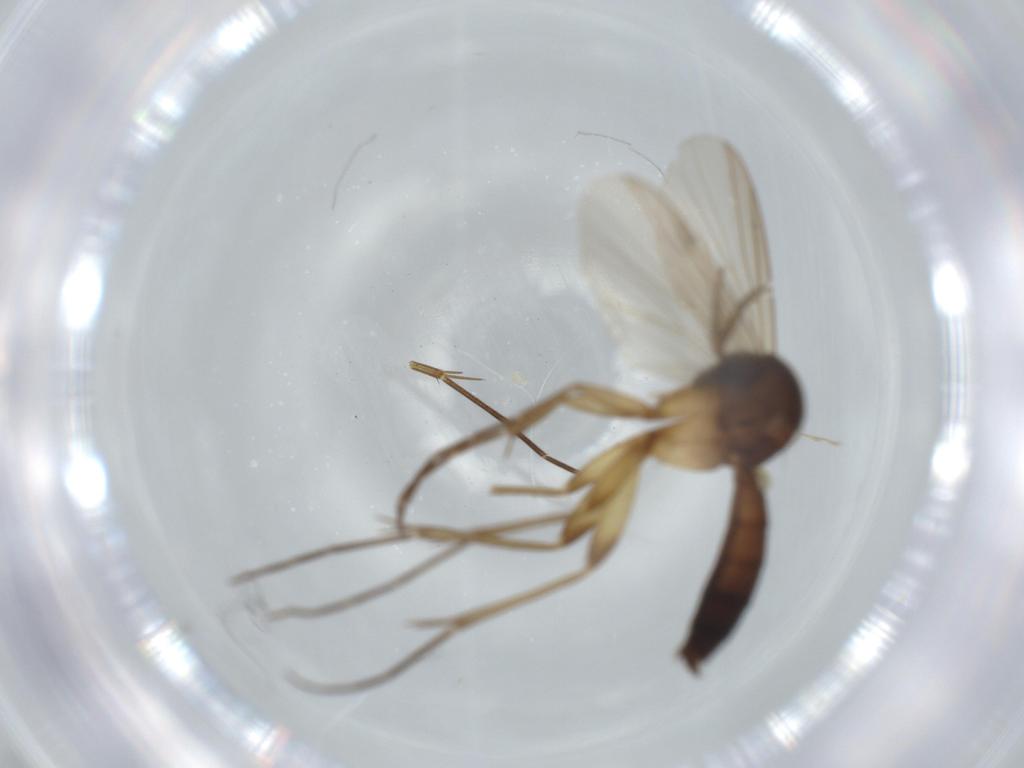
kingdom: Animalia
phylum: Arthropoda
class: Insecta
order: Diptera
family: Mycetophilidae
